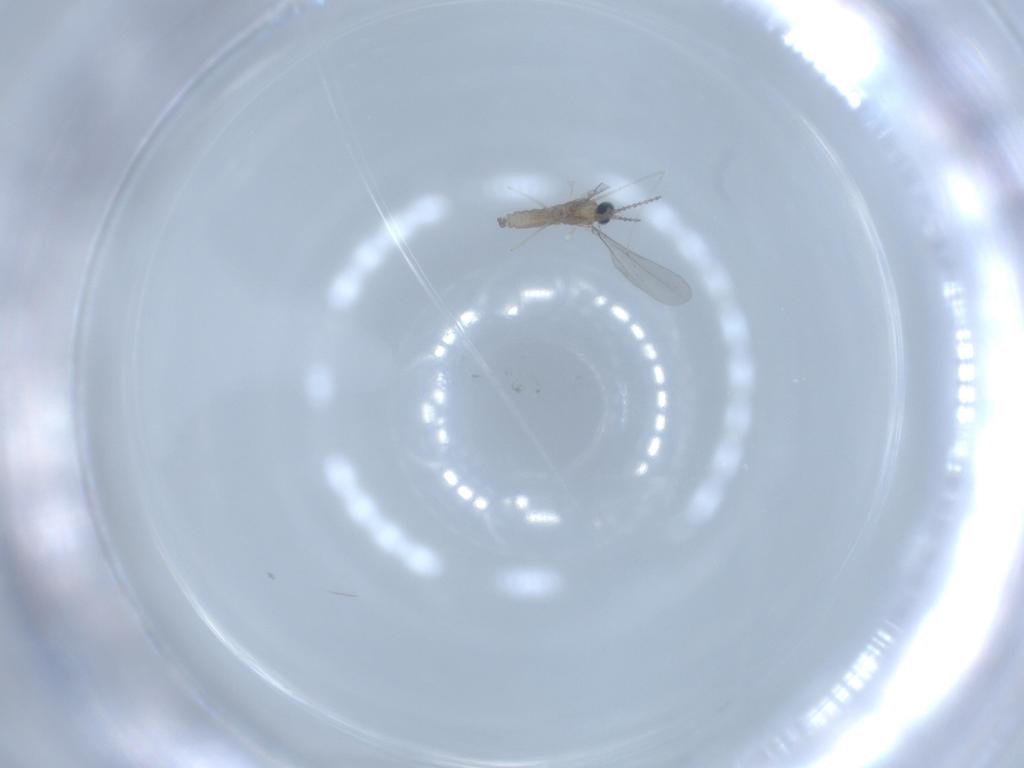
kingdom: Animalia
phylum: Arthropoda
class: Insecta
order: Diptera
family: Cecidomyiidae
